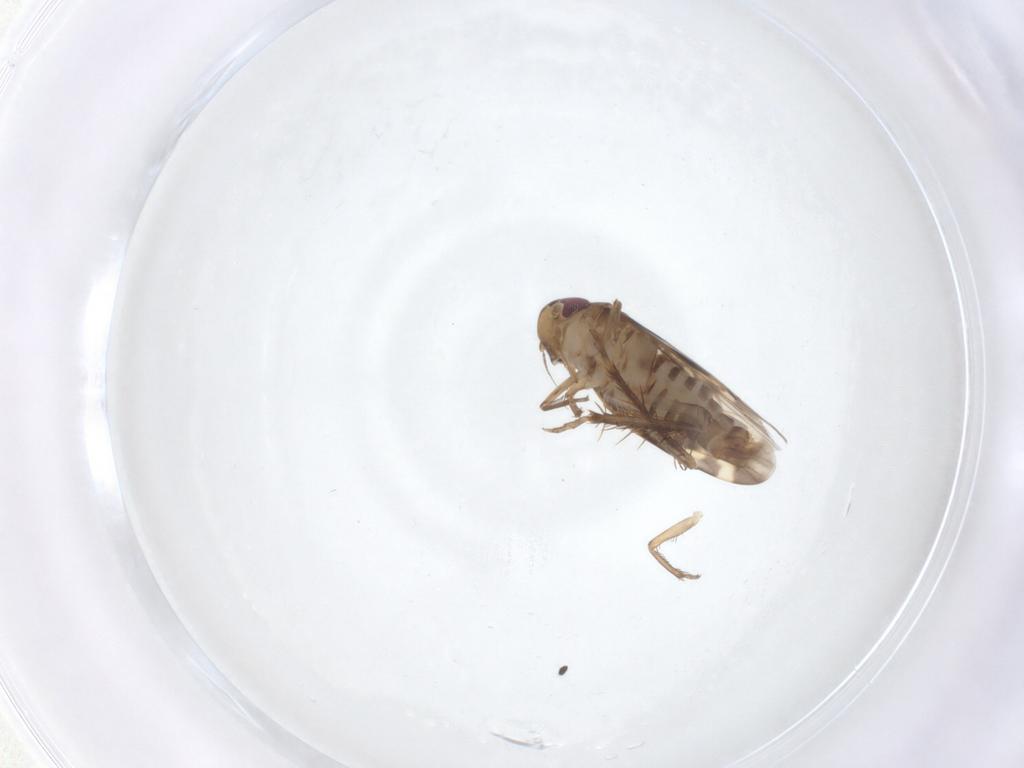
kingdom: Animalia
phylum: Arthropoda
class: Insecta
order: Hemiptera
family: Cicadellidae
